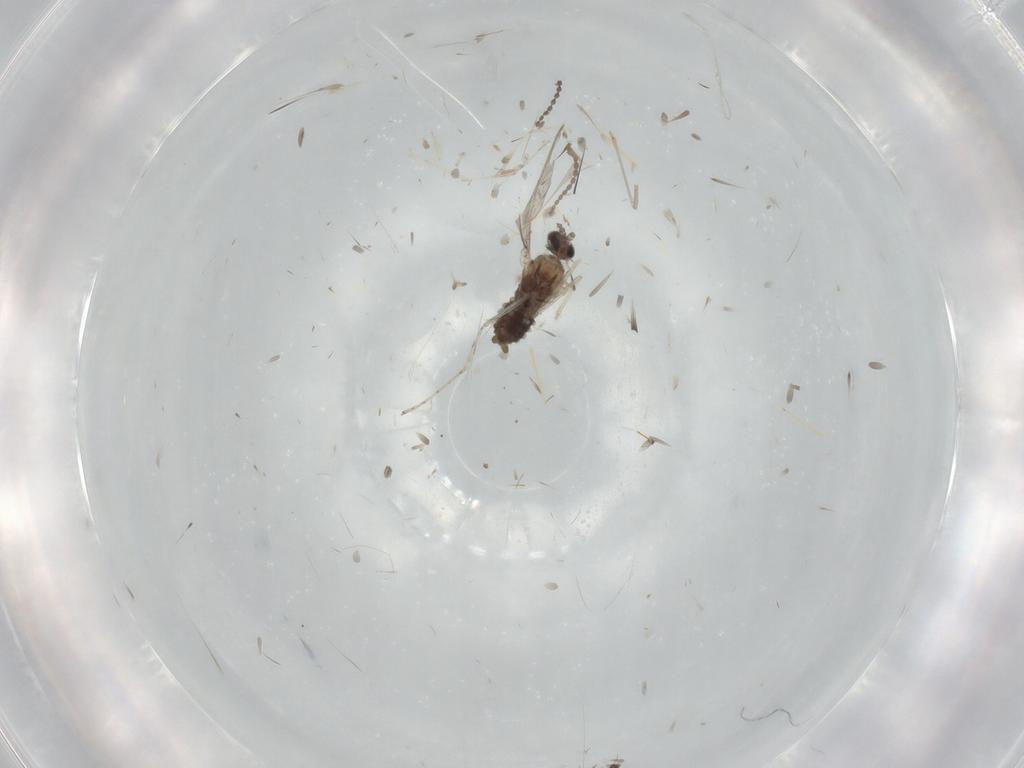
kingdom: Animalia
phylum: Arthropoda
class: Insecta
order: Diptera
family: Cecidomyiidae
